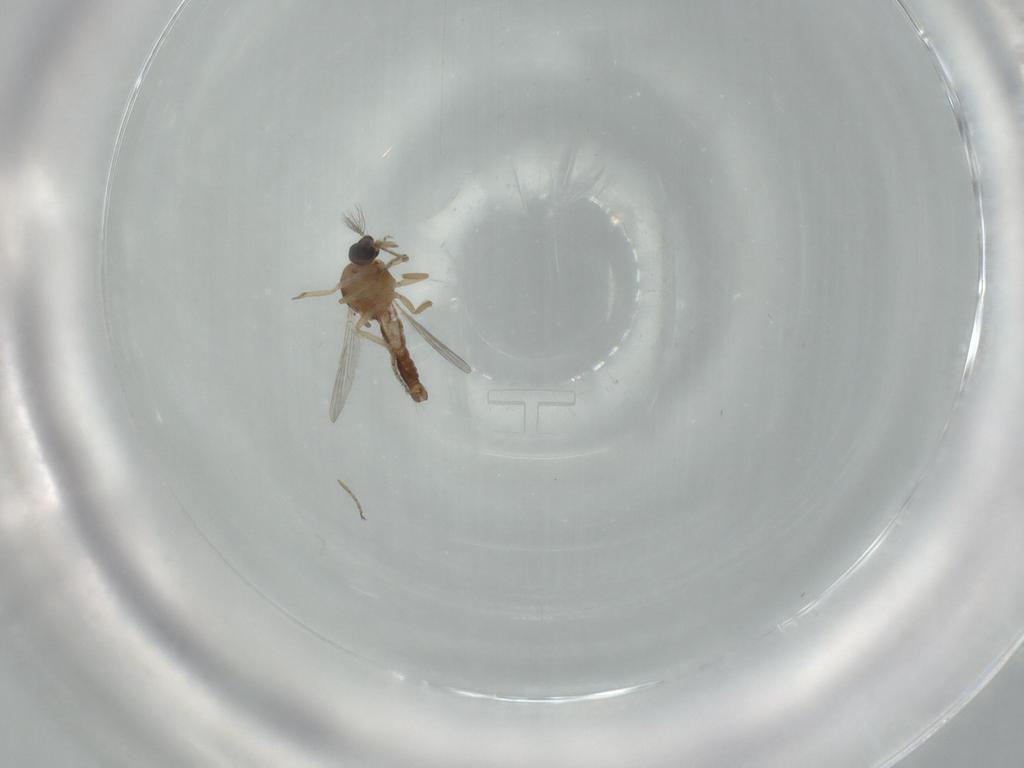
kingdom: Animalia
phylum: Arthropoda
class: Insecta
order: Diptera
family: Ceratopogonidae
